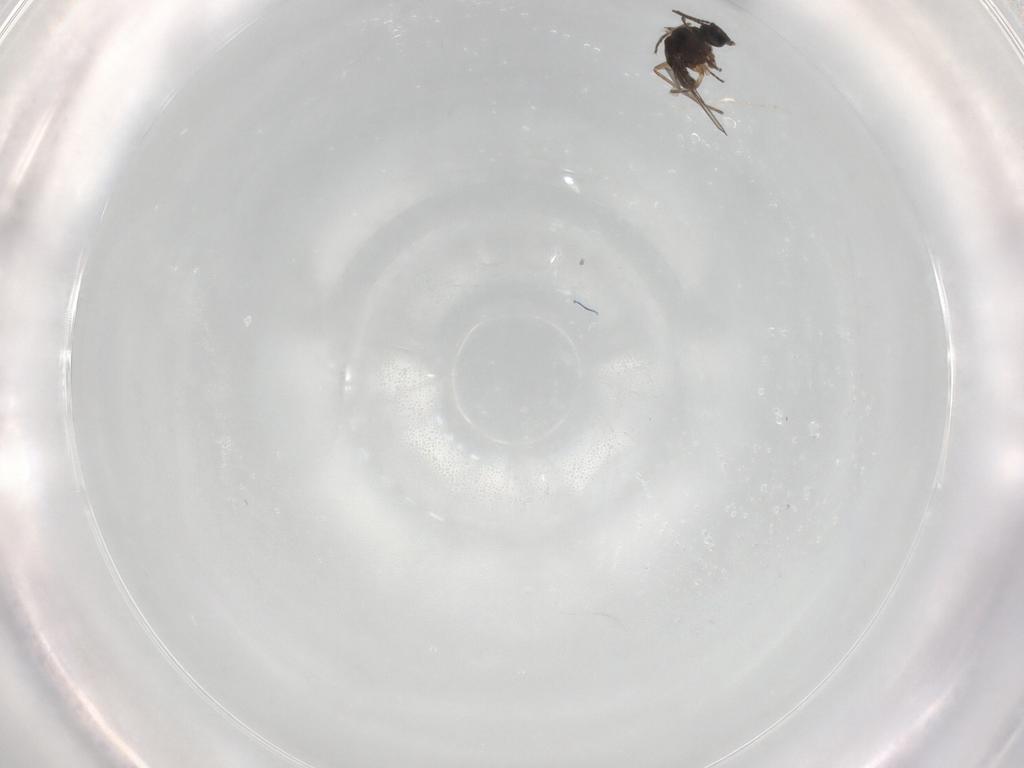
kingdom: Animalia
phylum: Arthropoda
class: Insecta
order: Diptera
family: Sciaridae
